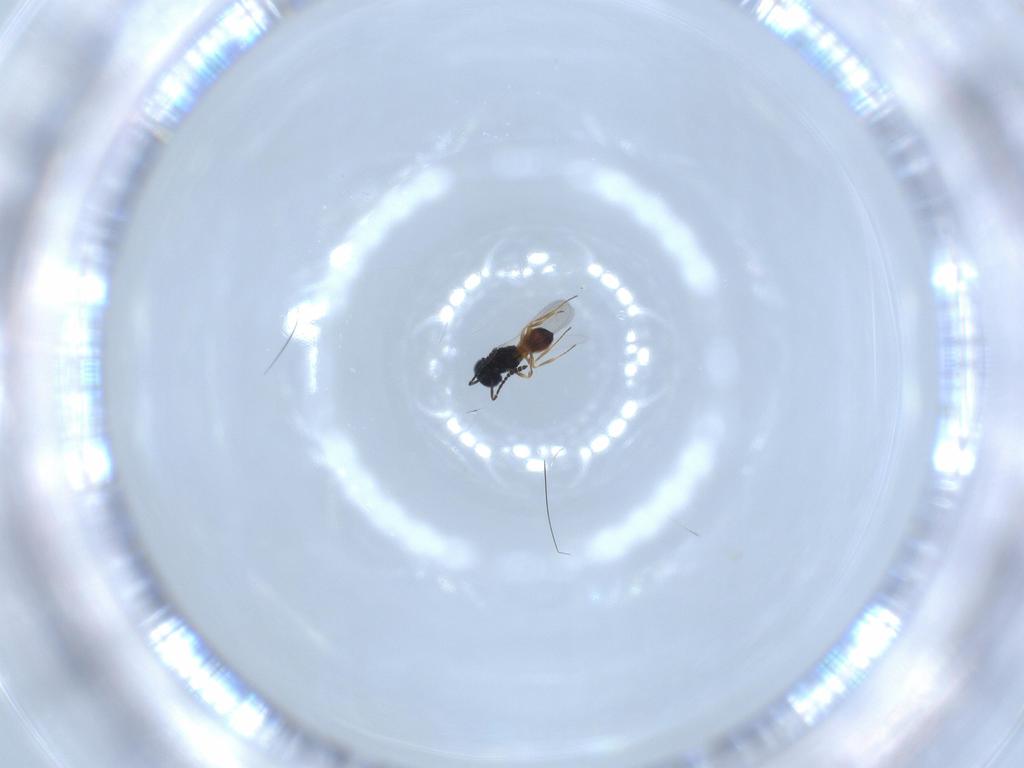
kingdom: Animalia
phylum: Arthropoda
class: Insecta
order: Hymenoptera
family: Scelionidae
